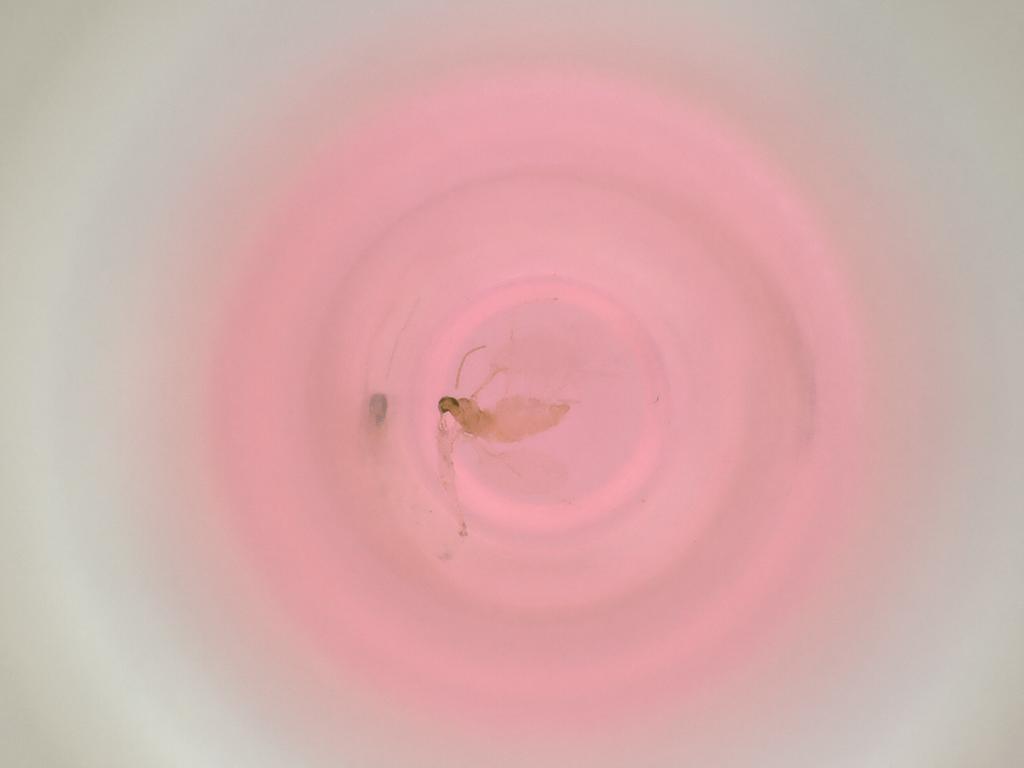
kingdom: Animalia
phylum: Arthropoda
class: Insecta
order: Diptera
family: Cecidomyiidae
